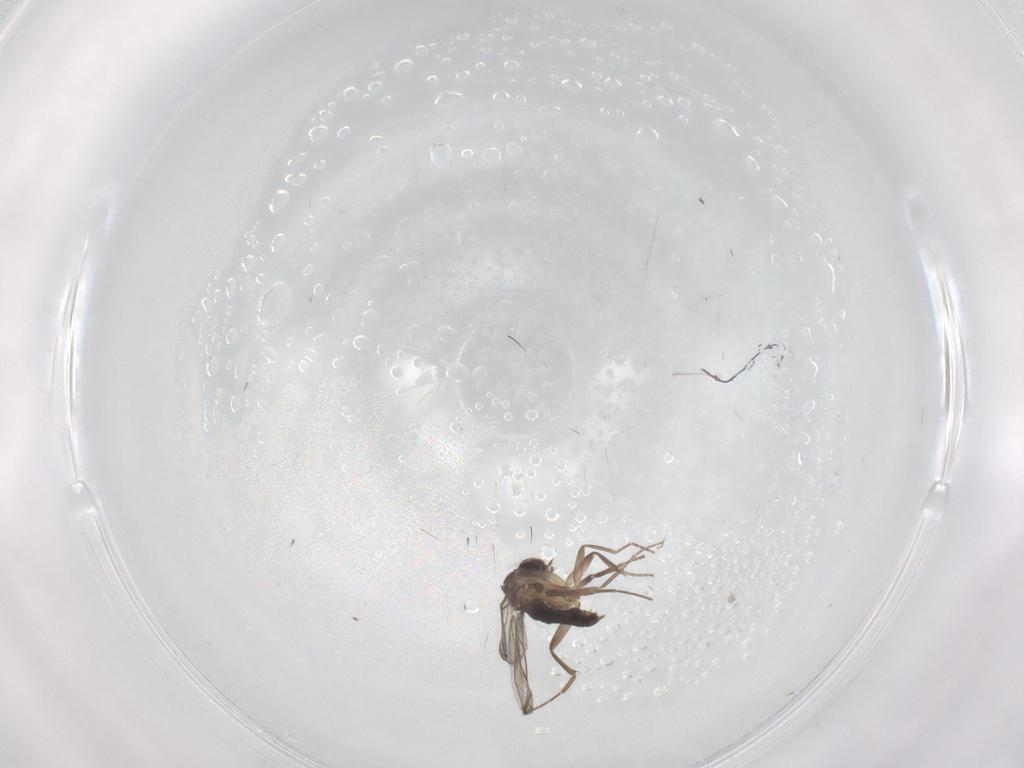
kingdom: Animalia
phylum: Arthropoda
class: Insecta
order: Diptera
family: Phoridae
